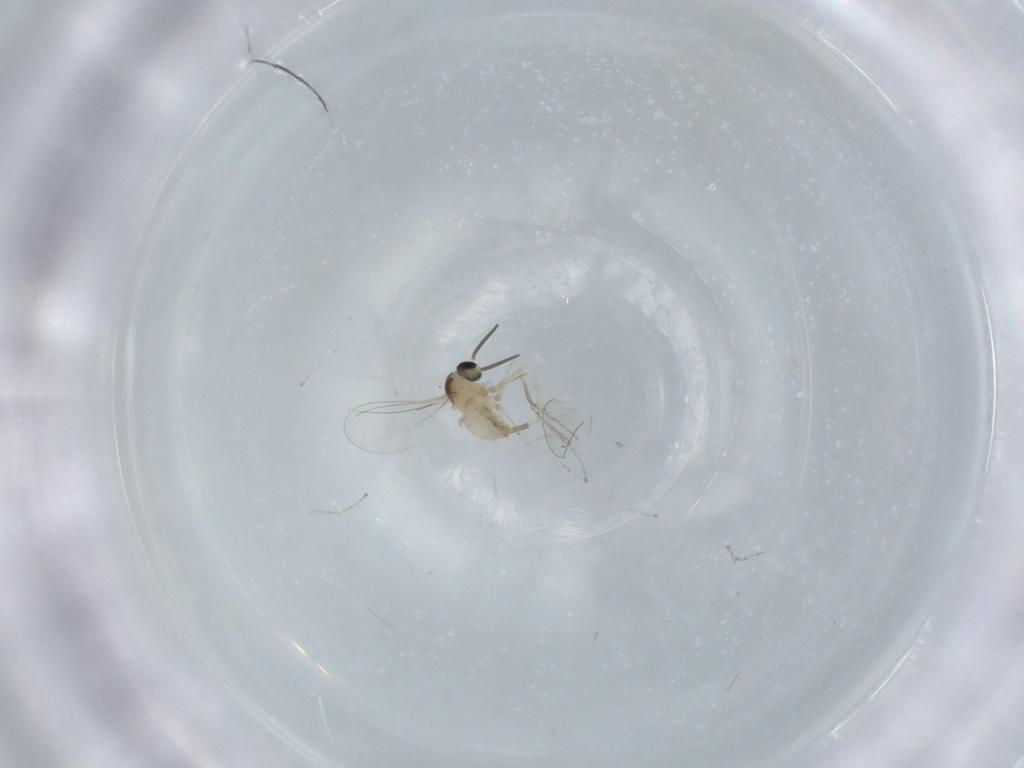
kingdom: Animalia
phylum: Arthropoda
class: Insecta
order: Diptera
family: Cecidomyiidae
